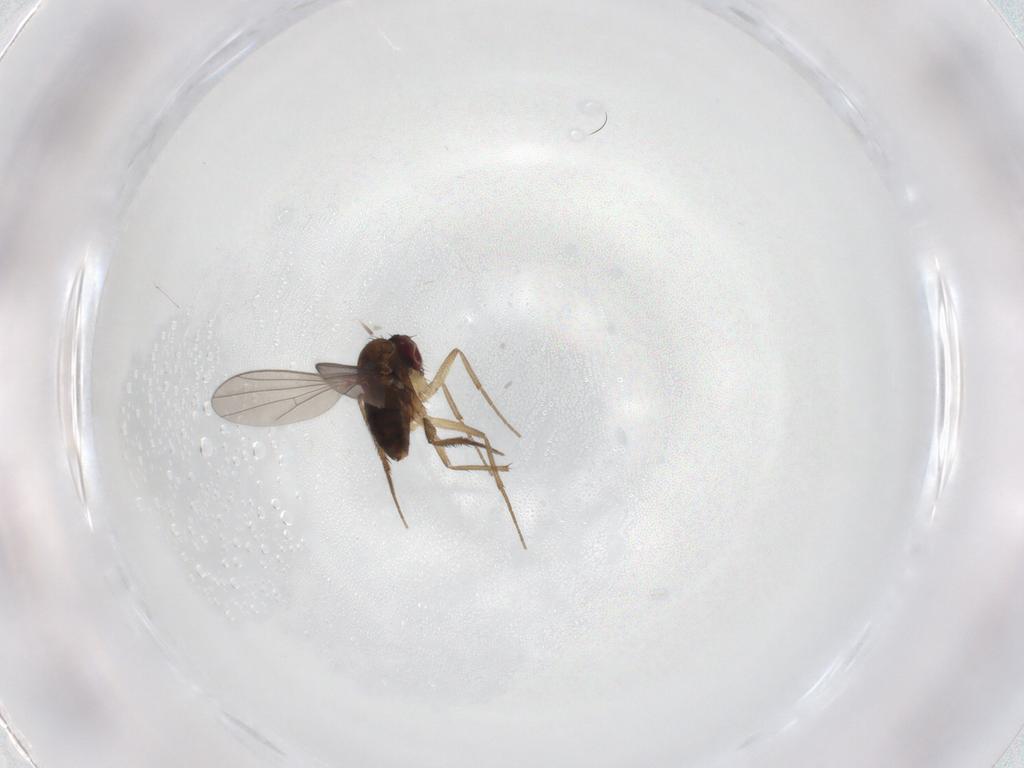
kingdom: Animalia
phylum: Arthropoda
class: Insecta
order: Diptera
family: Dolichopodidae
